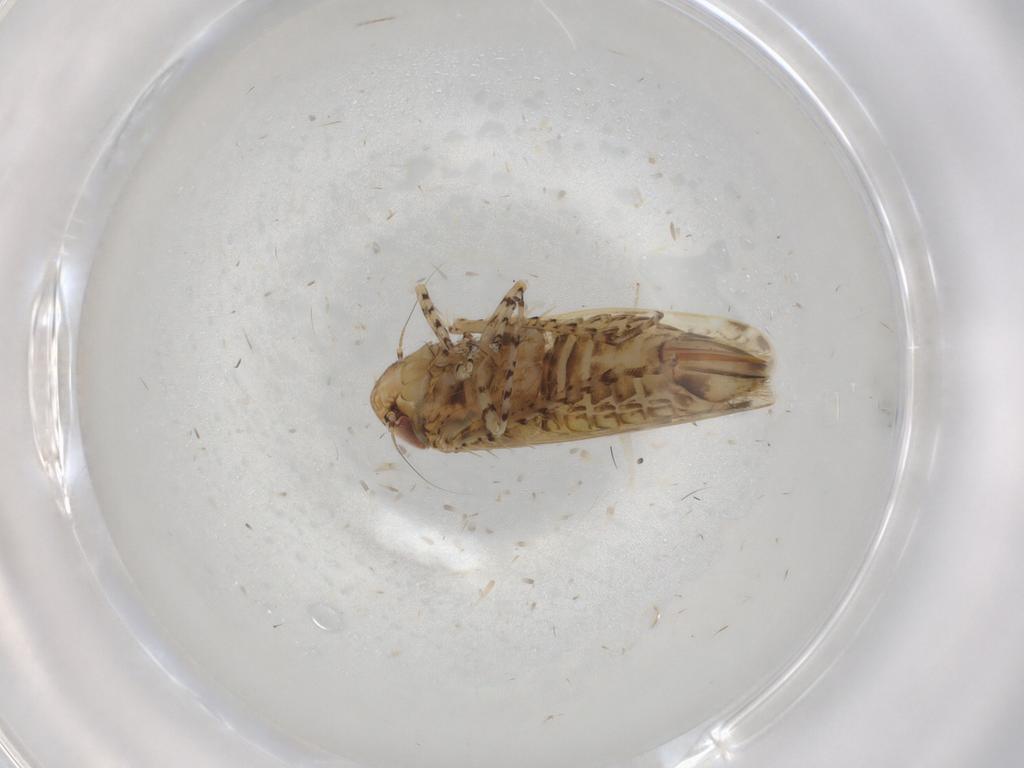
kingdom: Animalia
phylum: Arthropoda
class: Insecta
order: Hemiptera
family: Cicadellidae
